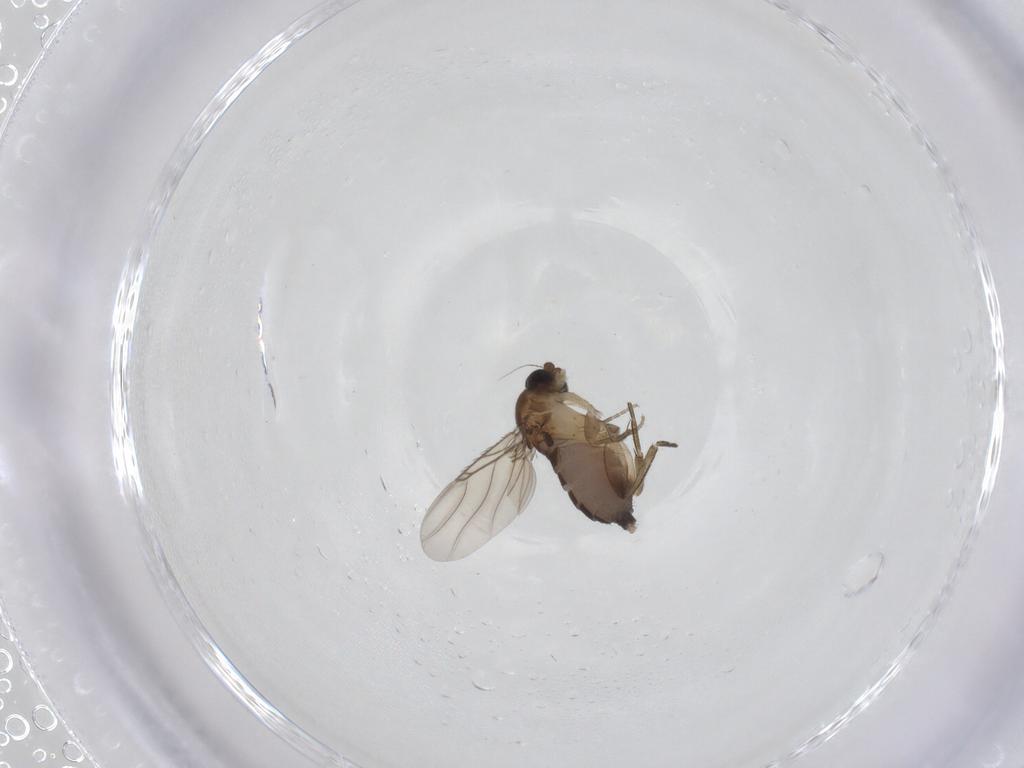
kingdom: Animalia
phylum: Arthropoda
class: Insecta
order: Diptera
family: Phoridae
